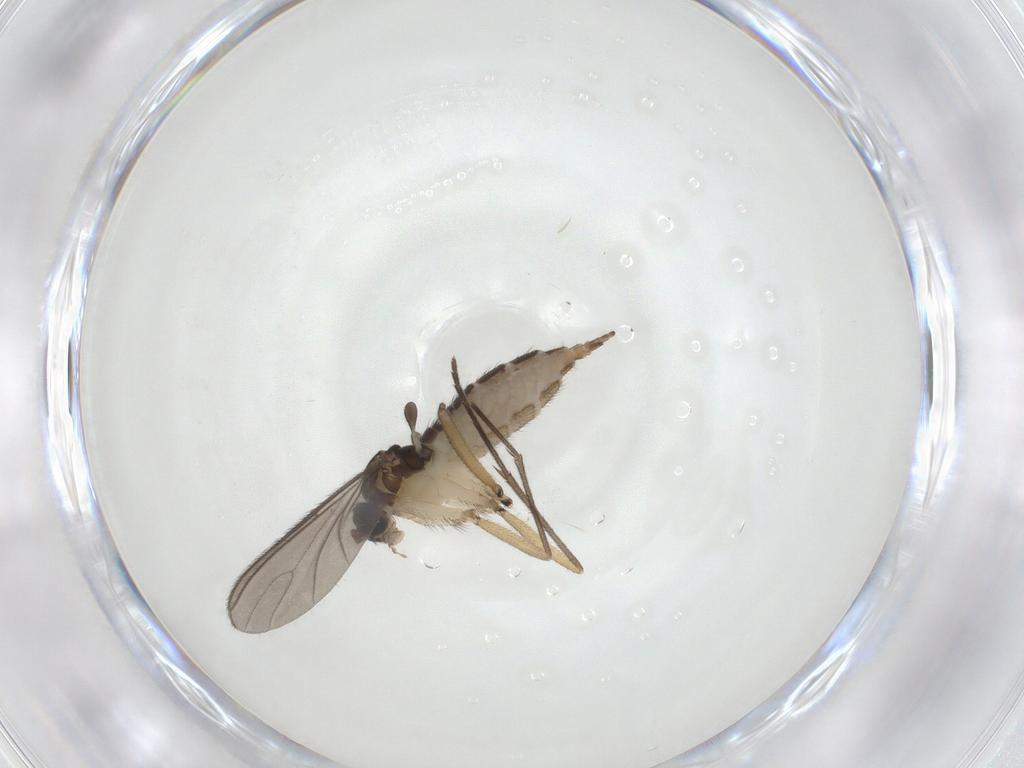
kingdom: Animalia
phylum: Arthropoda
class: Insecta
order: Diptera
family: Sciaridae
